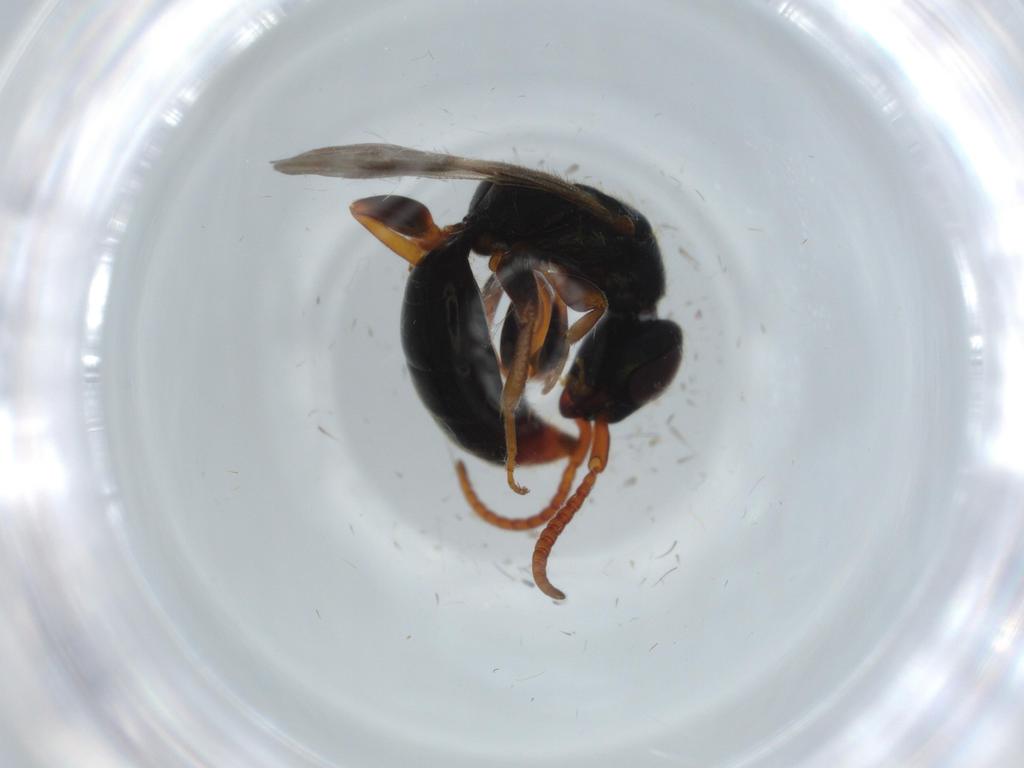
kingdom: Animalia
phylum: Arthropoda
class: Insecta
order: Hymenoptera
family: Bethylidae
